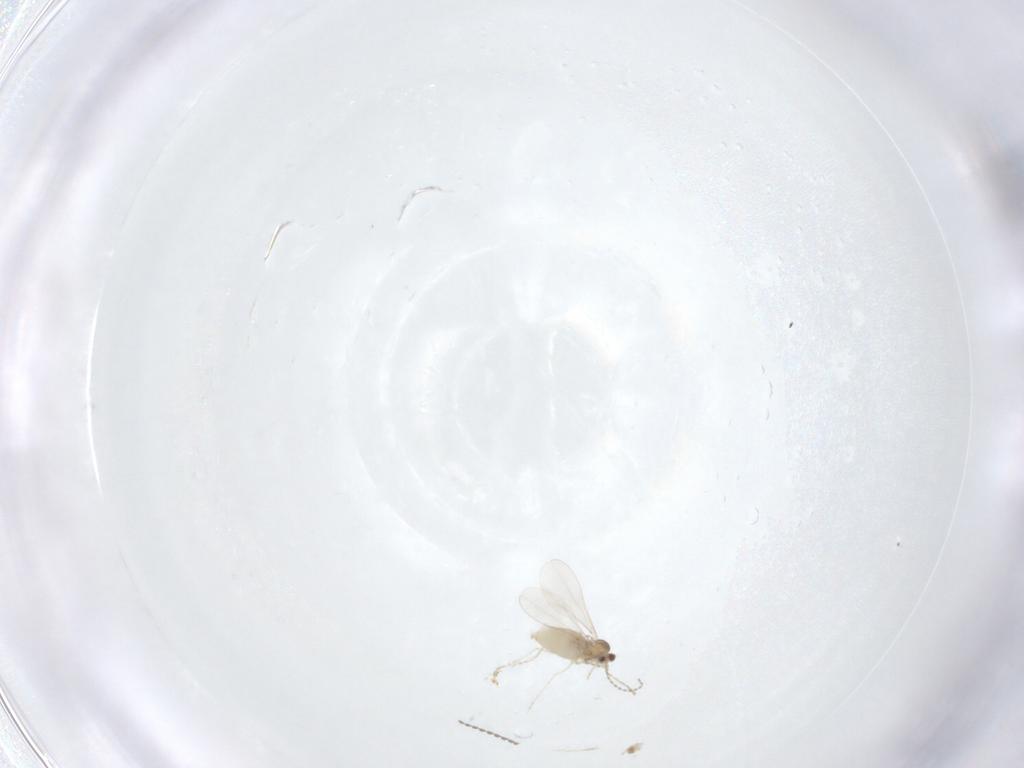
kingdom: Animalia
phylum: Arthropoda
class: Insecta
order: Diptera
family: Cecidomyiidae
